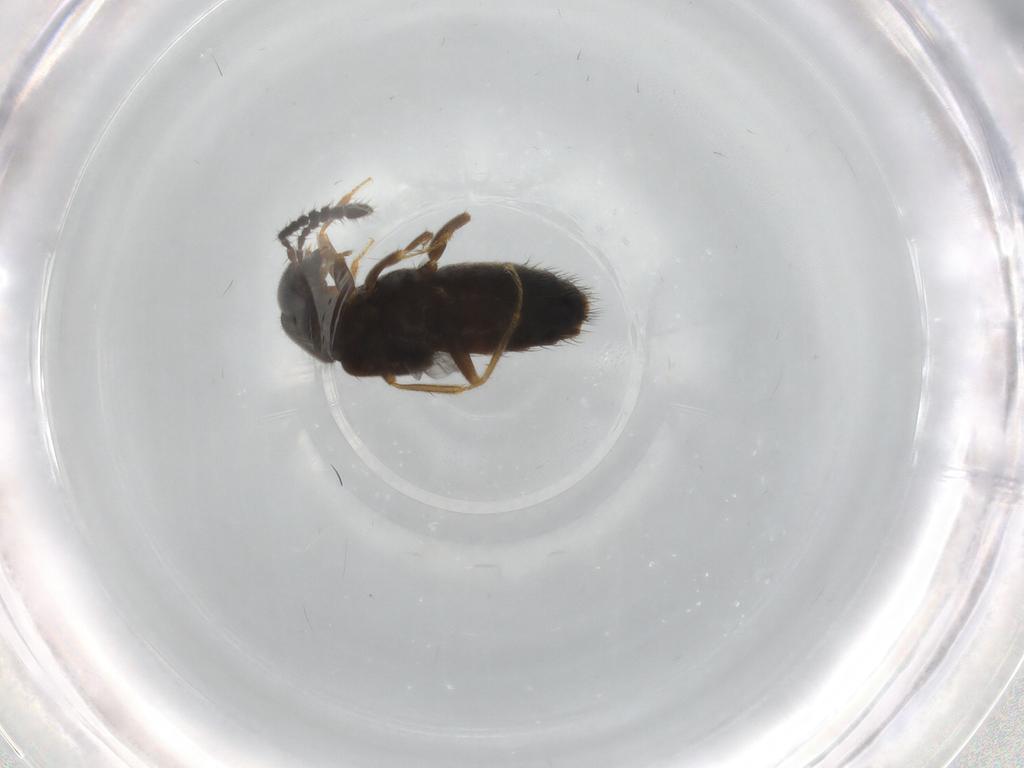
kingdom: Animalia
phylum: Arthropoda
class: Insecta
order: Coleoptera
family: Staphylinidae
